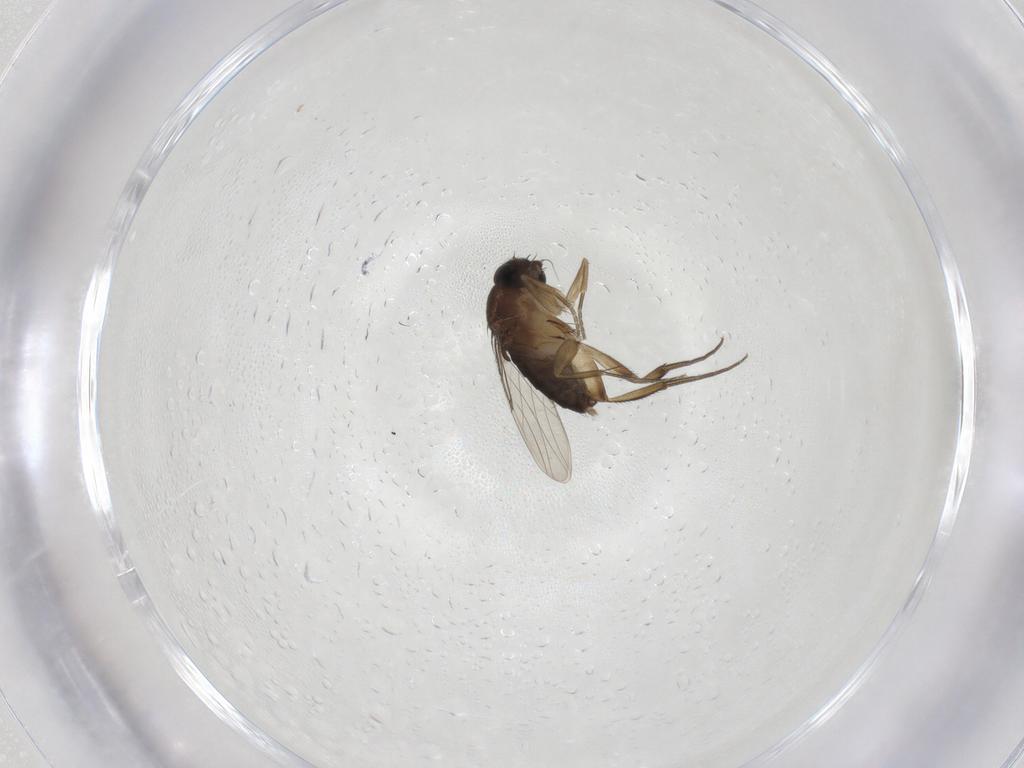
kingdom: Animalia
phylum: Arthropoda
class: Insecta
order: Diptera
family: Phoridae
